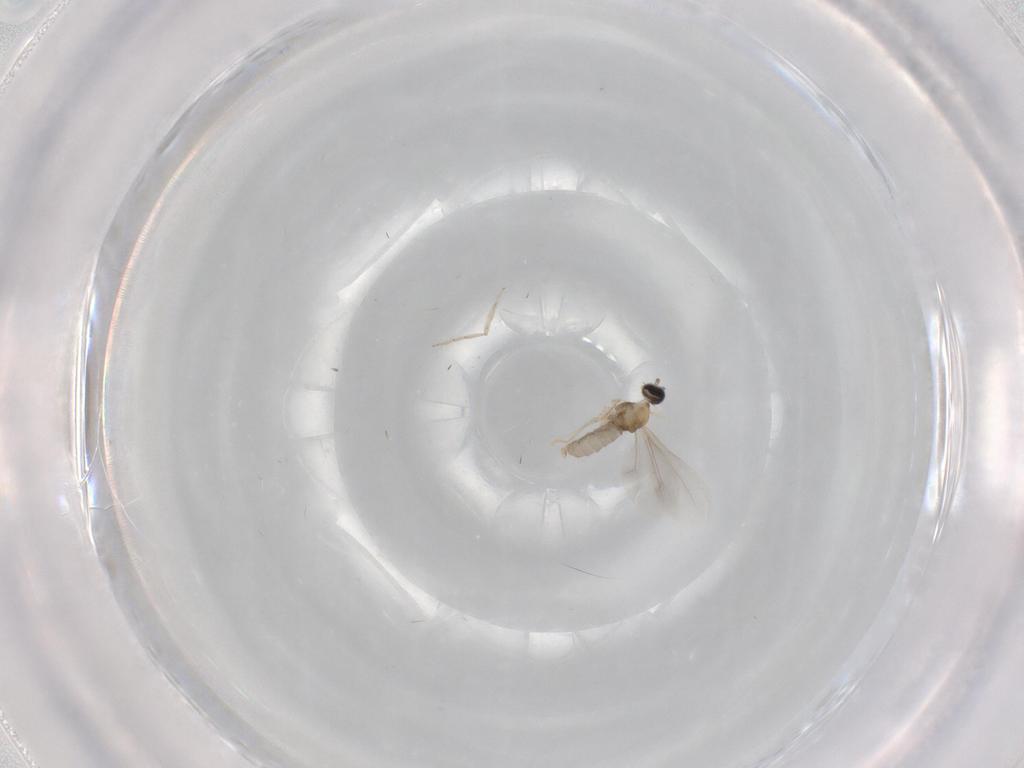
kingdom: Animalia
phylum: Arthropoda
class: Insecta
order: Diptera
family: Cecidomyiidae
